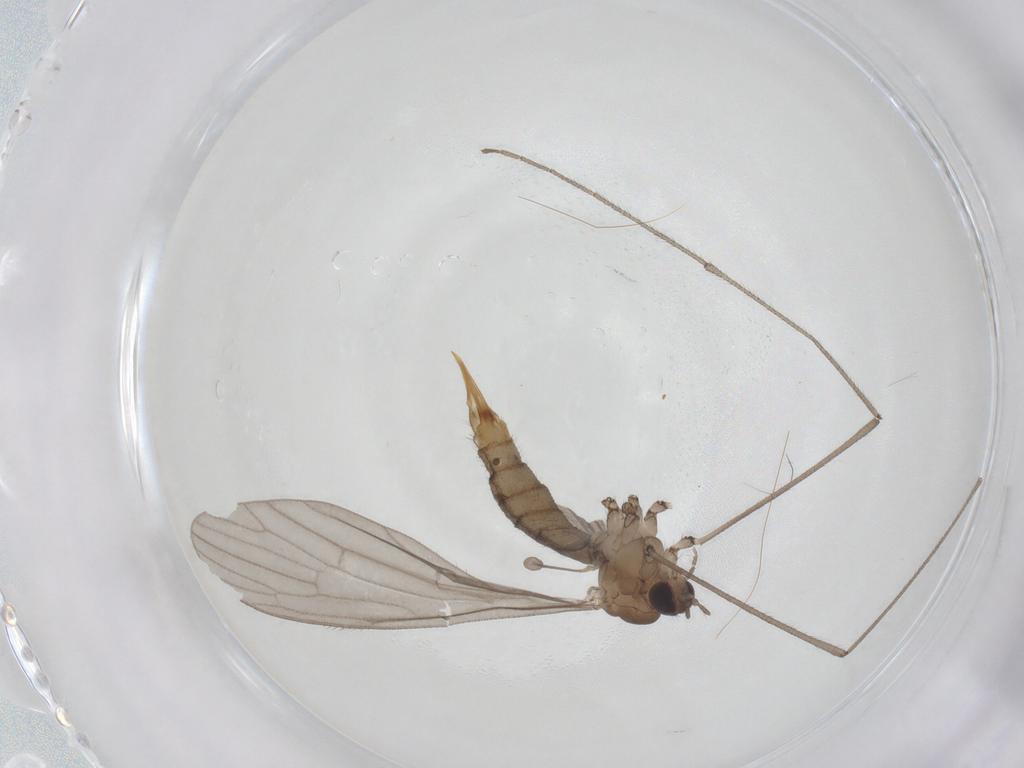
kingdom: Animalia
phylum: Arthropoda
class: Insecta
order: Diptera
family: Limoniidae
